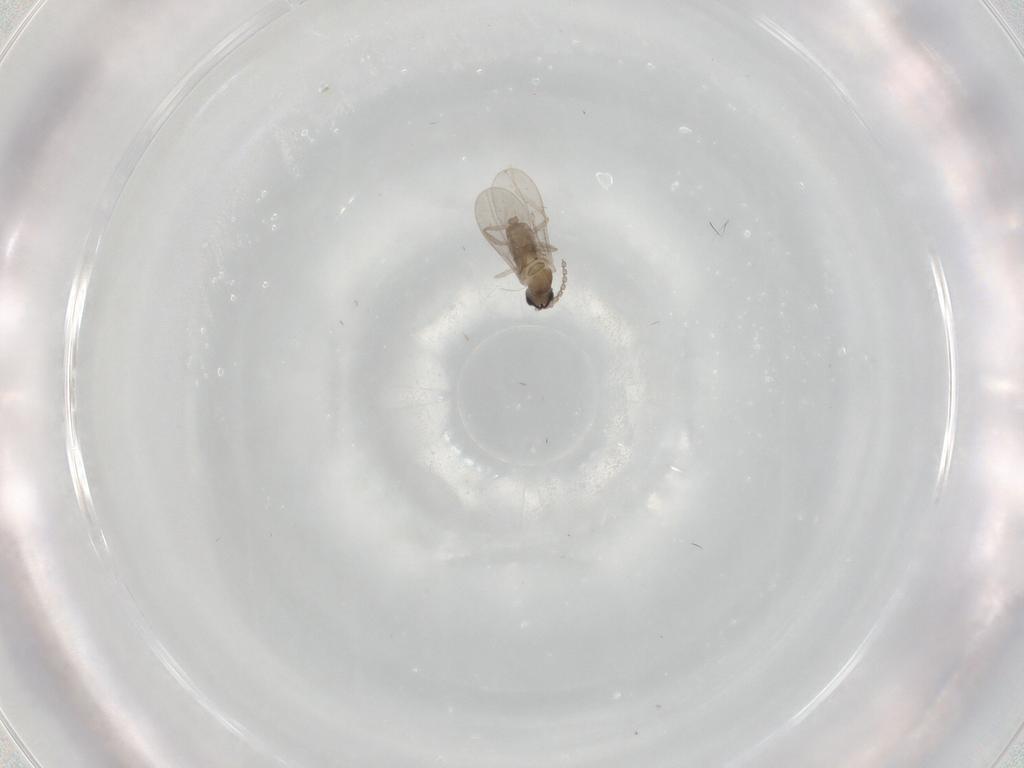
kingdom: Animalia
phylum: Arthropoda
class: Insecta
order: Diptera
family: Cecidomyiidae
